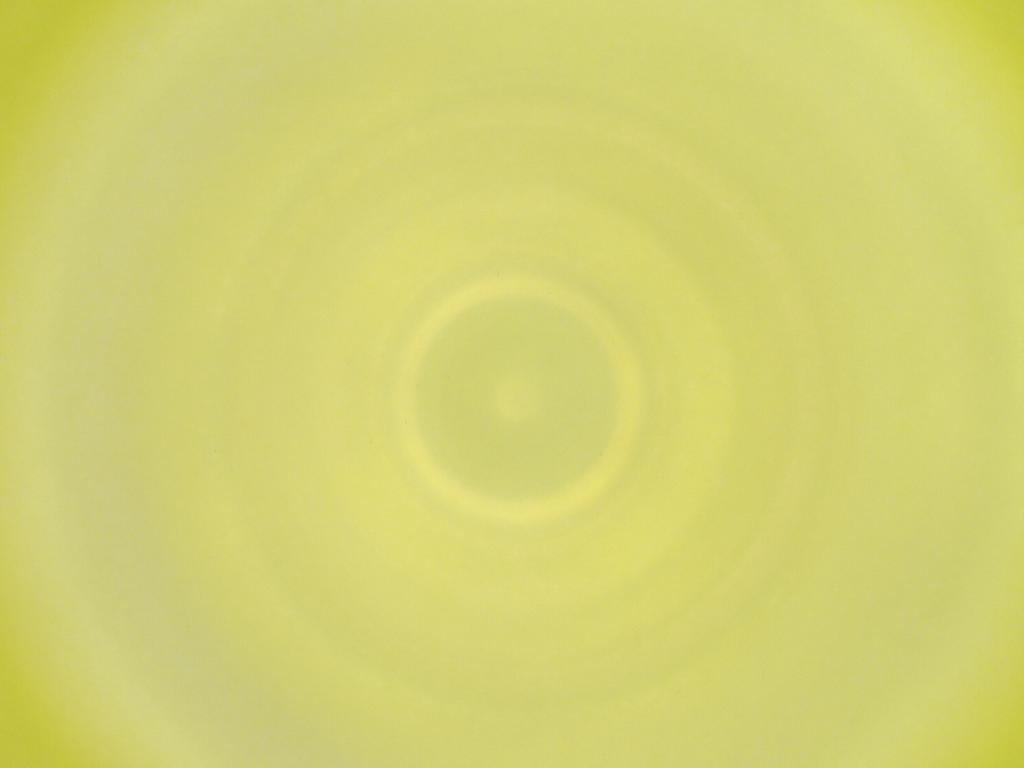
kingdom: Animalia
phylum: Arthropoda
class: Insecta
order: Diptera
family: Cecidomyiidae
